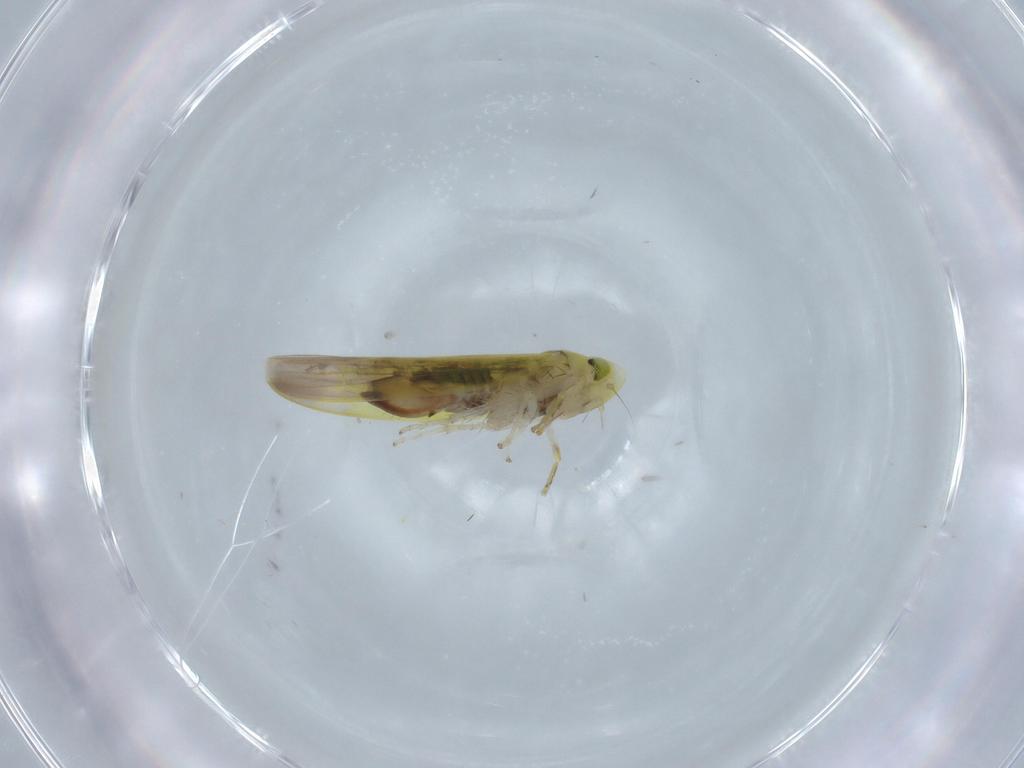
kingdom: Animalia
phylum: Arthropoda
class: Insecta
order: Hemiptera
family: Cicadellidae
